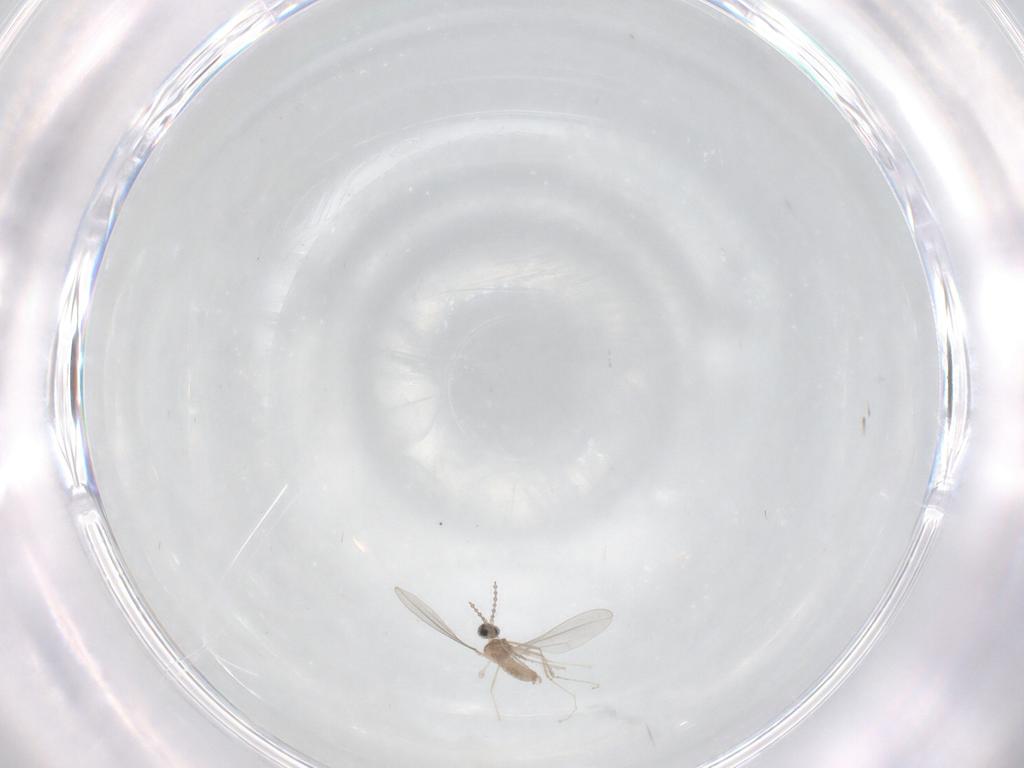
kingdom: Animalia
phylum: Arthropoda
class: Insecta
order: Diptera
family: Cecidomyiidae
